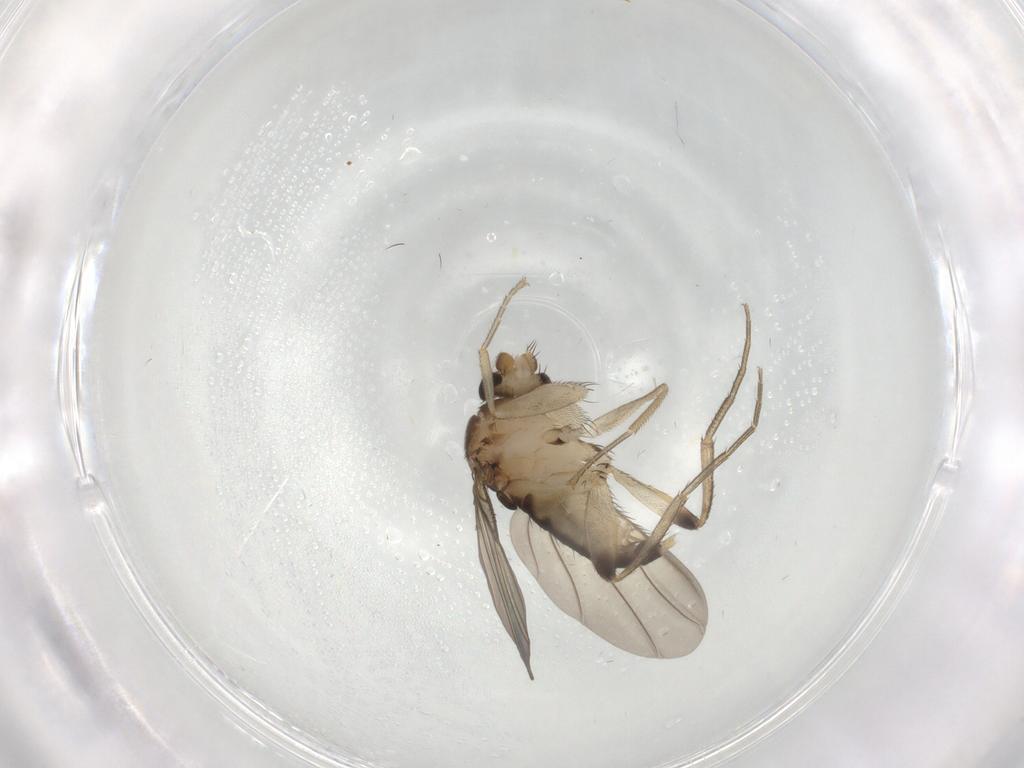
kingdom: Animalia
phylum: Arthropoda
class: Insecta
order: Diptera
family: Phoridae
